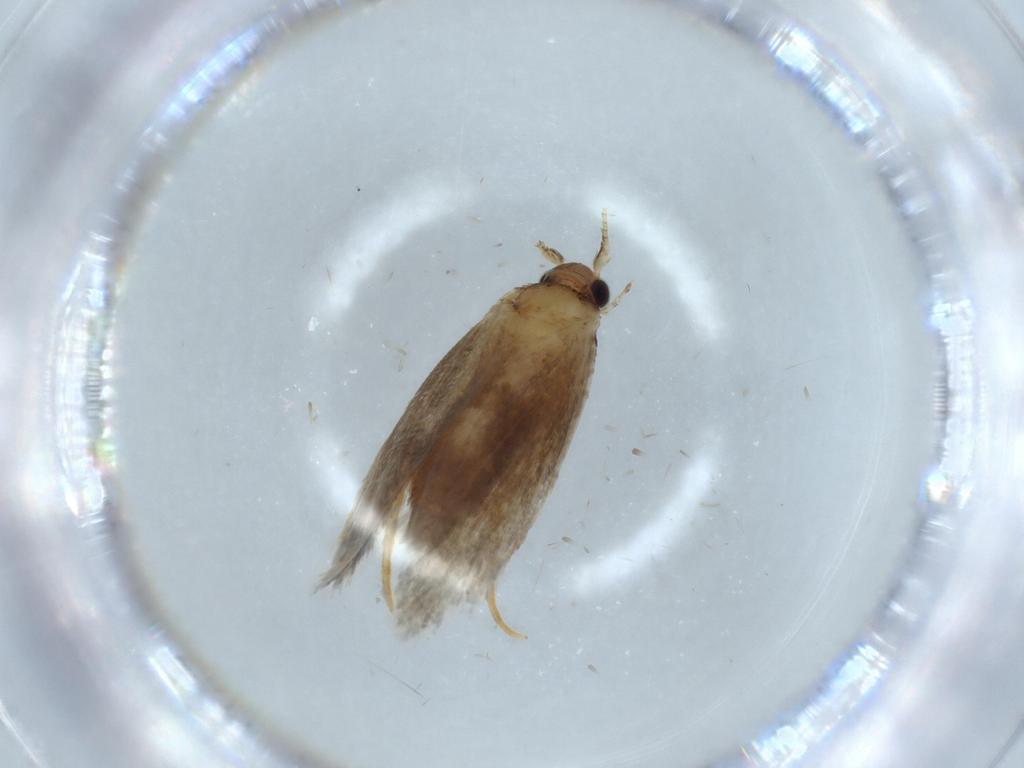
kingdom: Animalia
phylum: Arthropoda
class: Insecta
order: Lepidoptera
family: Tineidae
